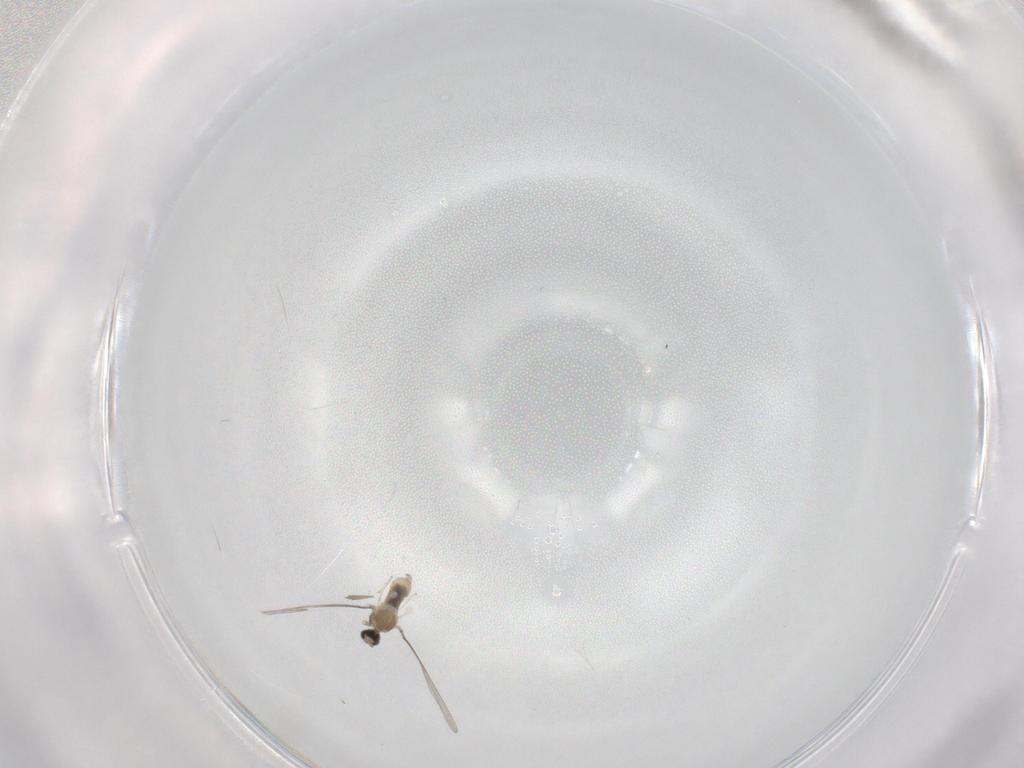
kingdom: Animalia
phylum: Arthropoda
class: Insecta
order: Diptera
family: Cecidomyiidae
